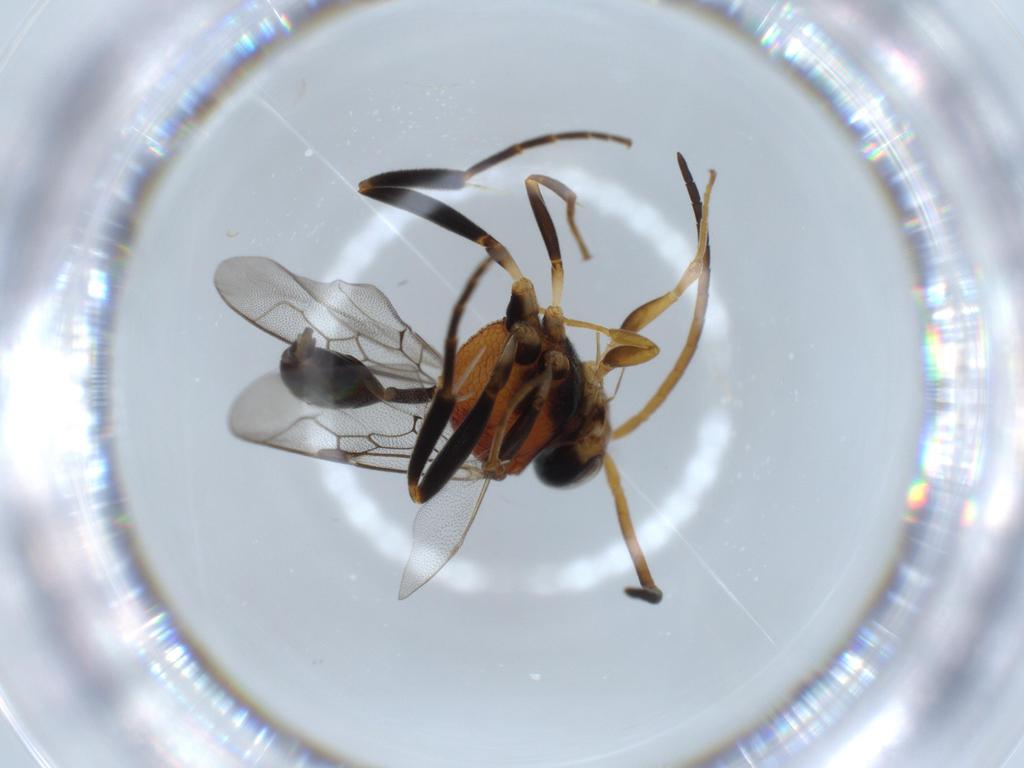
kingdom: Animalia
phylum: Arthropoda
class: Insecta
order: Hymenoptera
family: Evaniidae
